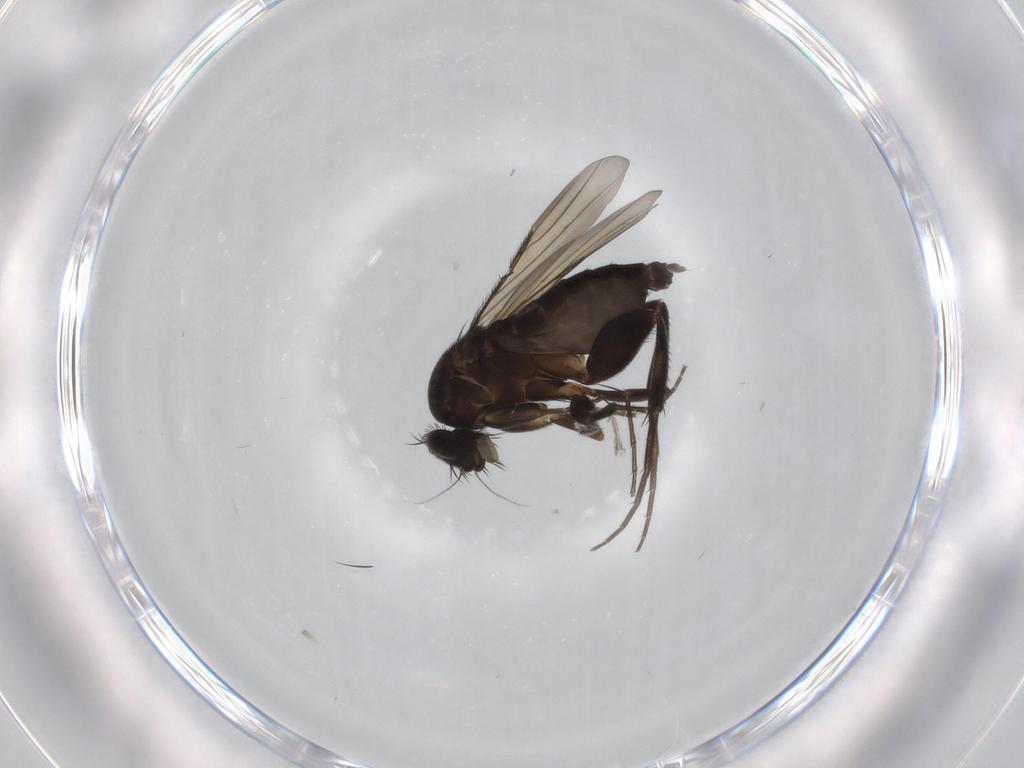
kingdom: Animalia
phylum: Arthropoda
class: Insecta
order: Diptera
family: Phoridae
